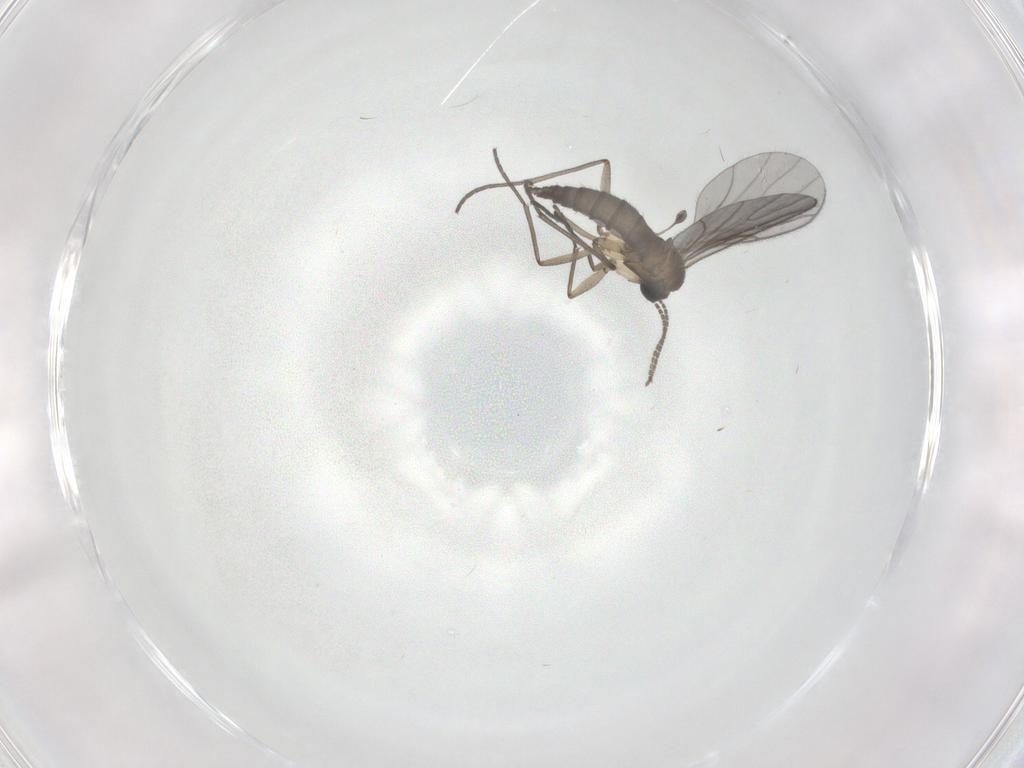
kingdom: Animalia
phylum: Arthropoda
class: Insecta
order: Diptera
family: Sciaridae
